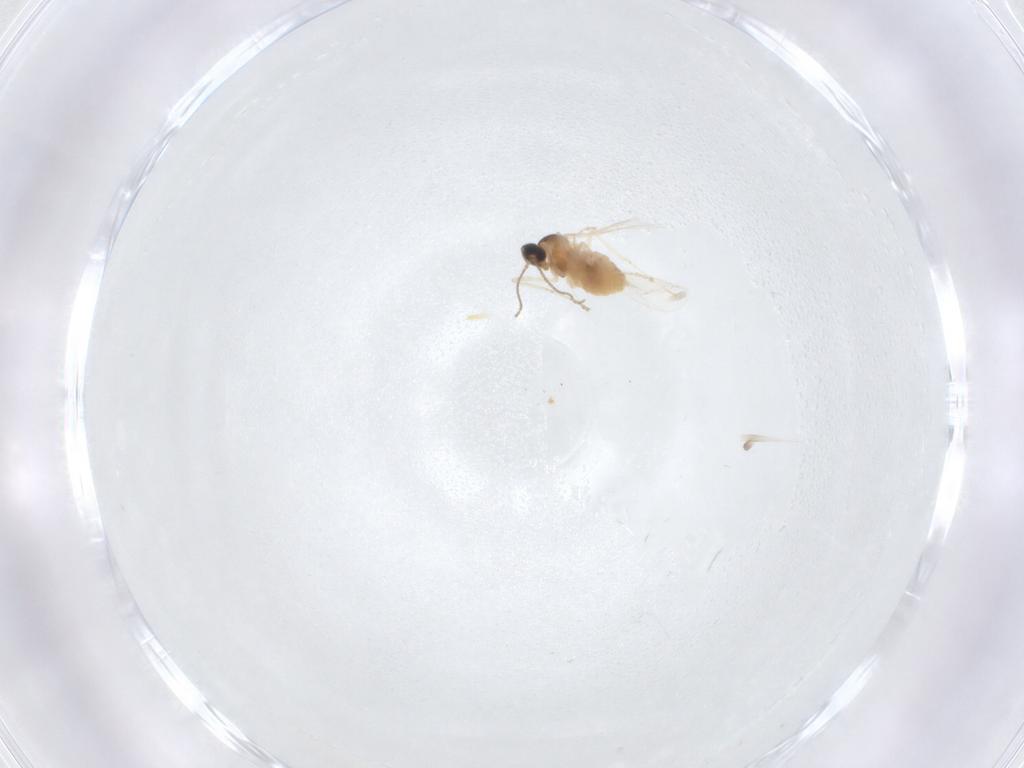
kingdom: Animalia
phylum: Arthropoda
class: Insecta
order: Diptera
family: Cecidomyiidae
